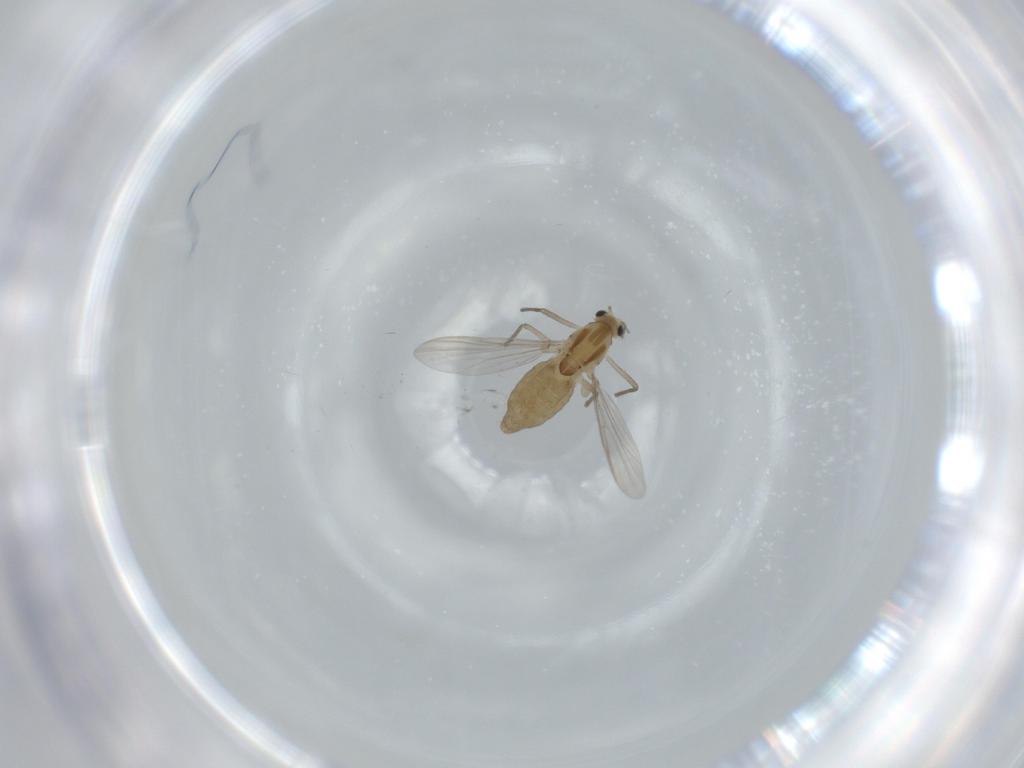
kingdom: Animalia
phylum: Arthropoda
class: Insecta
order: Diptera
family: Chironomidae
